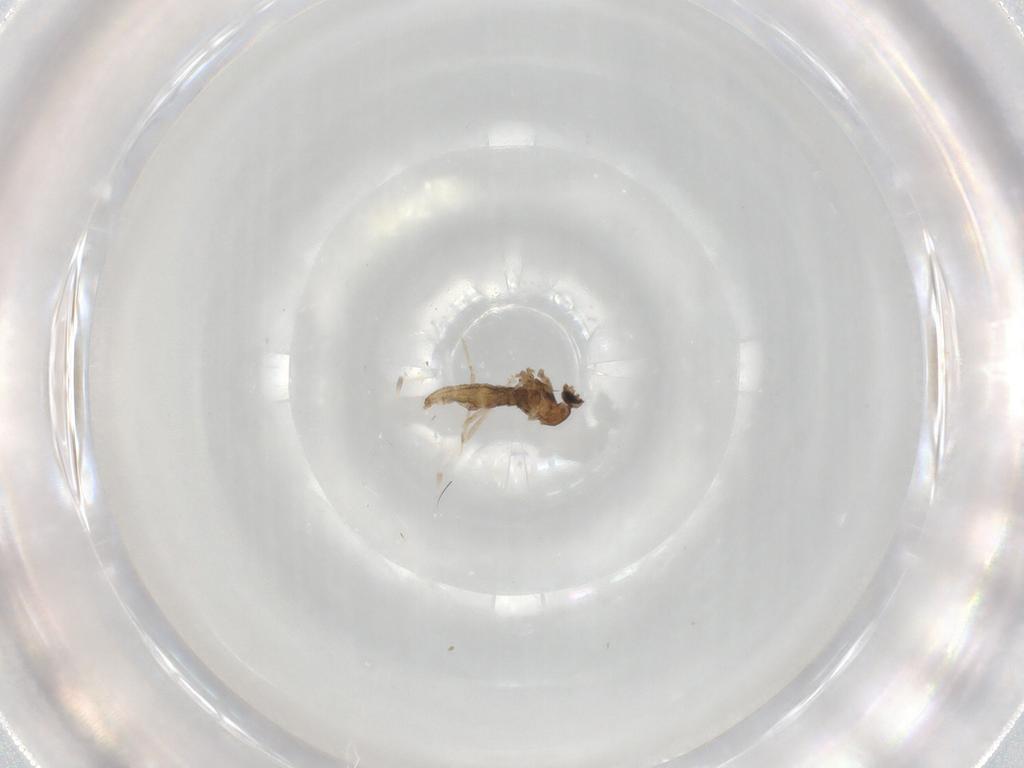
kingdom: Animalia
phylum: Arthropoda
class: Insecta
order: Diptera
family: Cecidomyiidae
